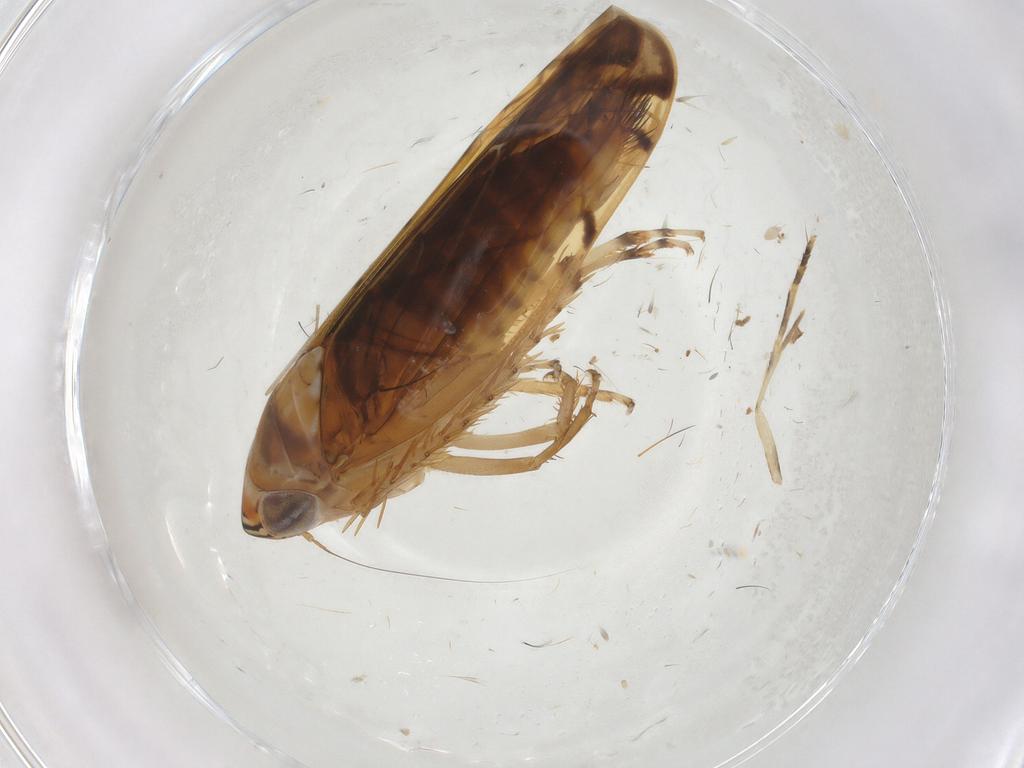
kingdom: Animalia
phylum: Arthropoda
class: Insecta
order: Hemiptera
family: Cicadellidae
